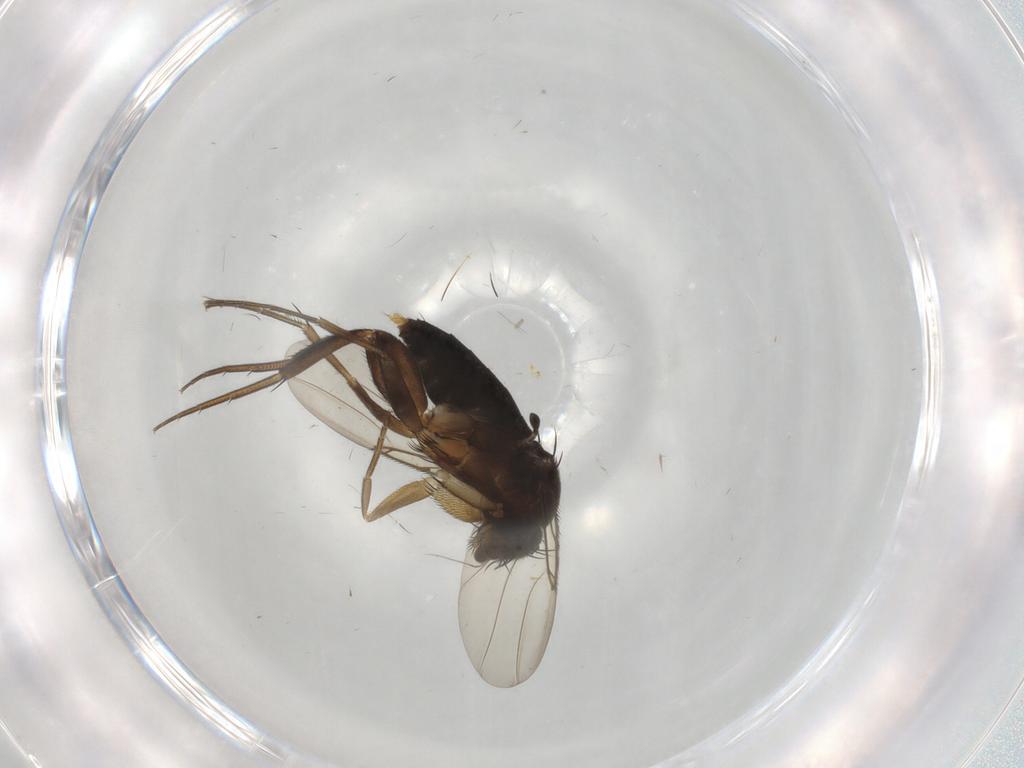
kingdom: Animalia
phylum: Arthropoda
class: Insecta
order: Diptera
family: Phoridae
